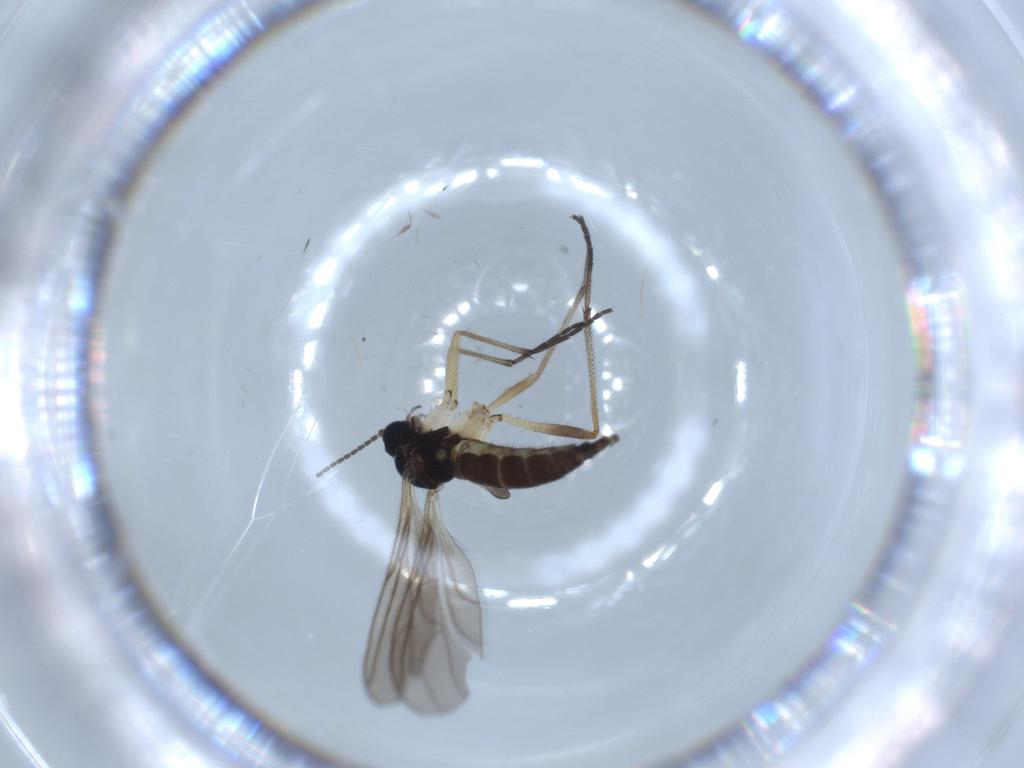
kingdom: Animalia
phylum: Arthropoda
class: Insecta
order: Diptera
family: Sciaridae
